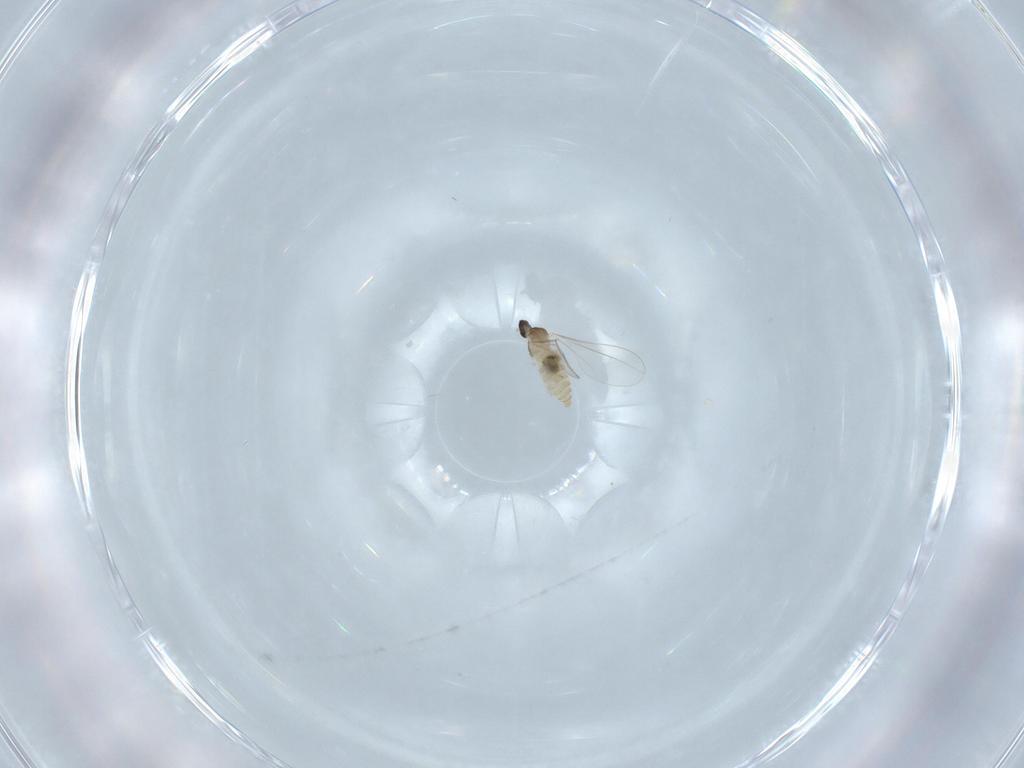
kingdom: Animalia
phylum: Arthropoda
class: Insecta
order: Diptera
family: Cecidomyiidae
